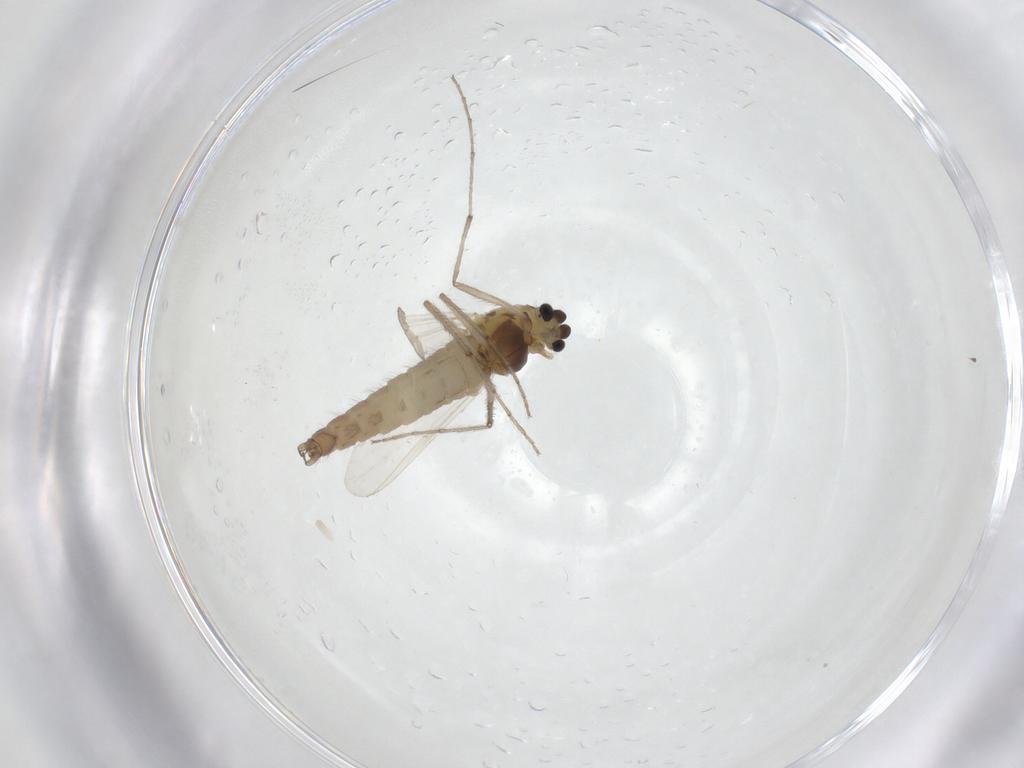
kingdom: Animalia
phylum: Arthropoda
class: Insecta
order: Diptera
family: Chironomidae
